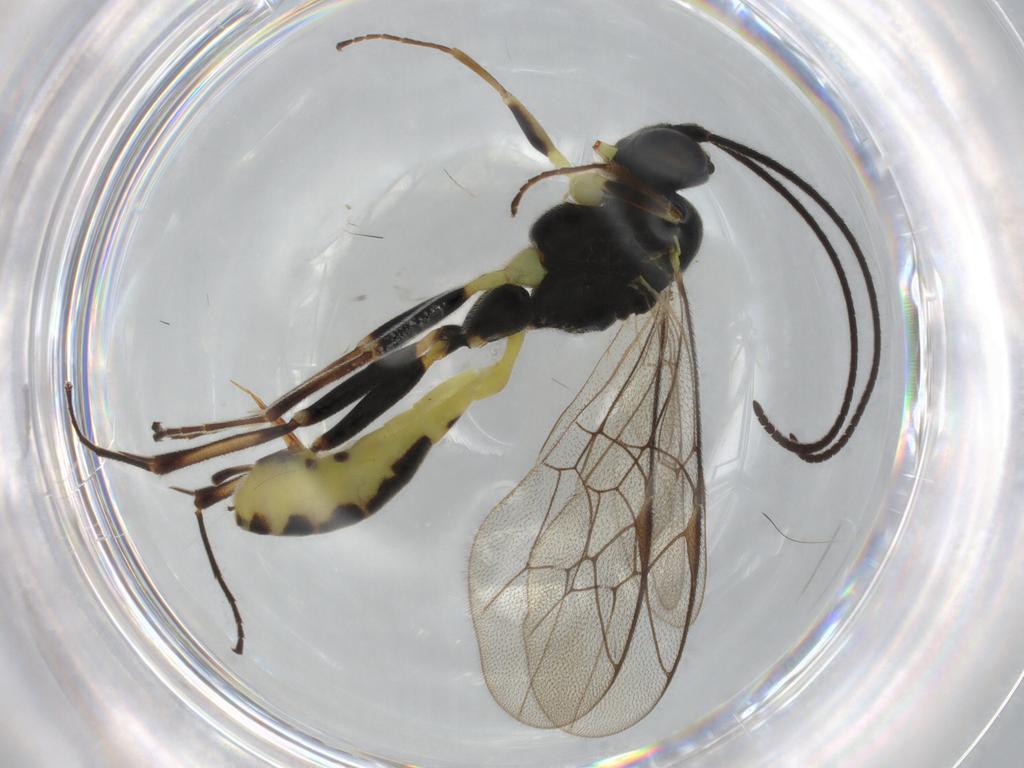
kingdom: Animalia
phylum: Arthropoda
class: Insecta
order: Hymenoptera
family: Ichneumonidae
